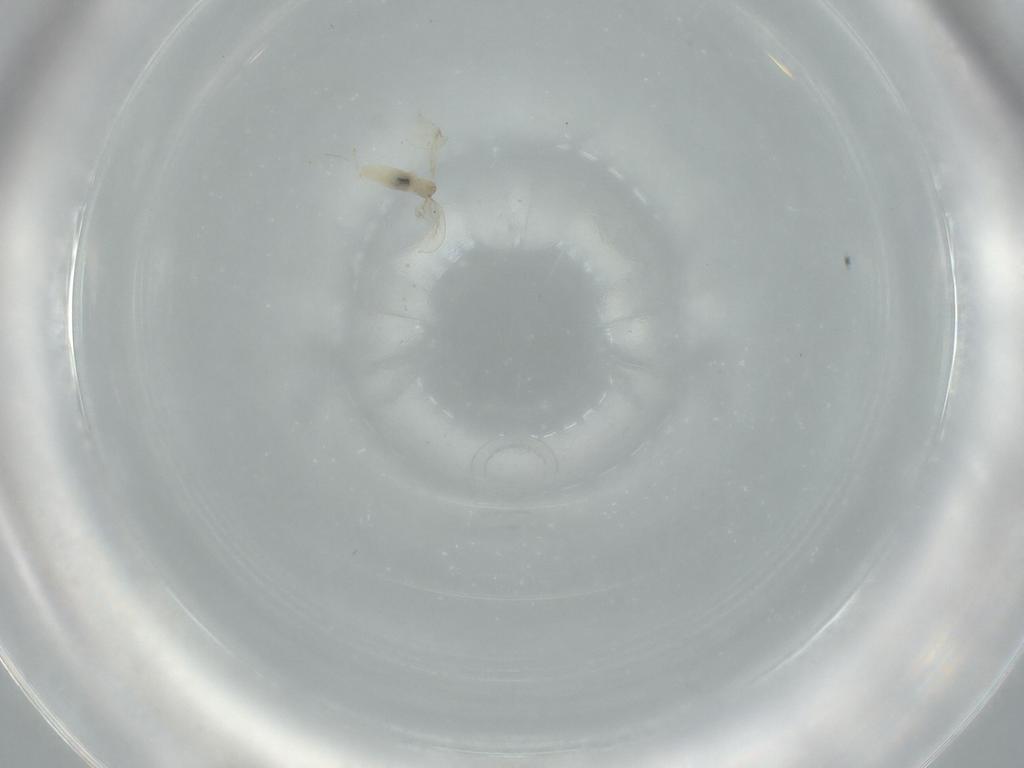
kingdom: Animalia
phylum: Arthropoda
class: Insecta
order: Diptera
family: Cecidomyiidae
